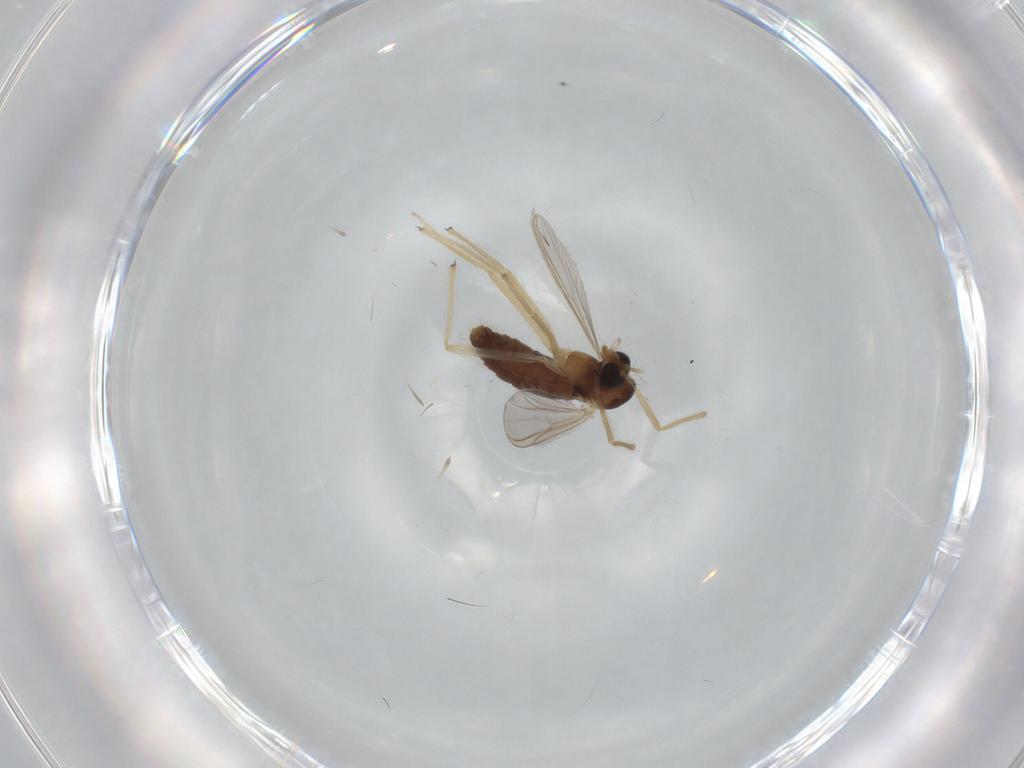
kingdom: Animalia
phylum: Arthropoda
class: Insecta
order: Diptera
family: Chironomidae
